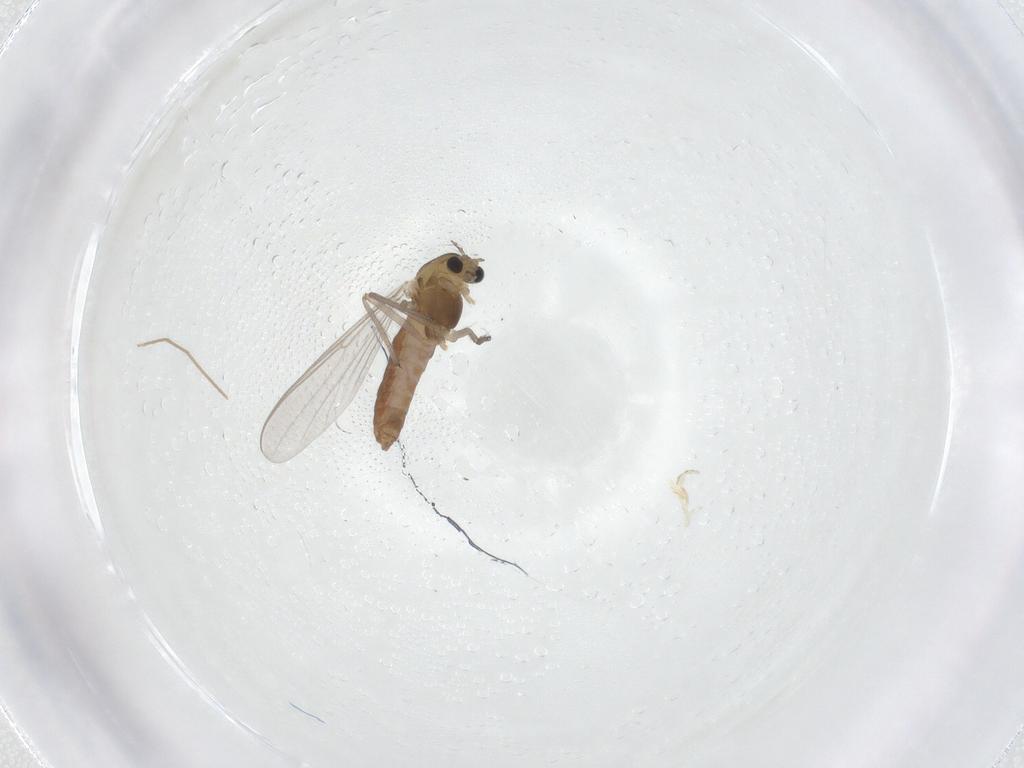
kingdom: Animalia
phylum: Arthropoda
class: Insecta
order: Diptera
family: Chironomidae
